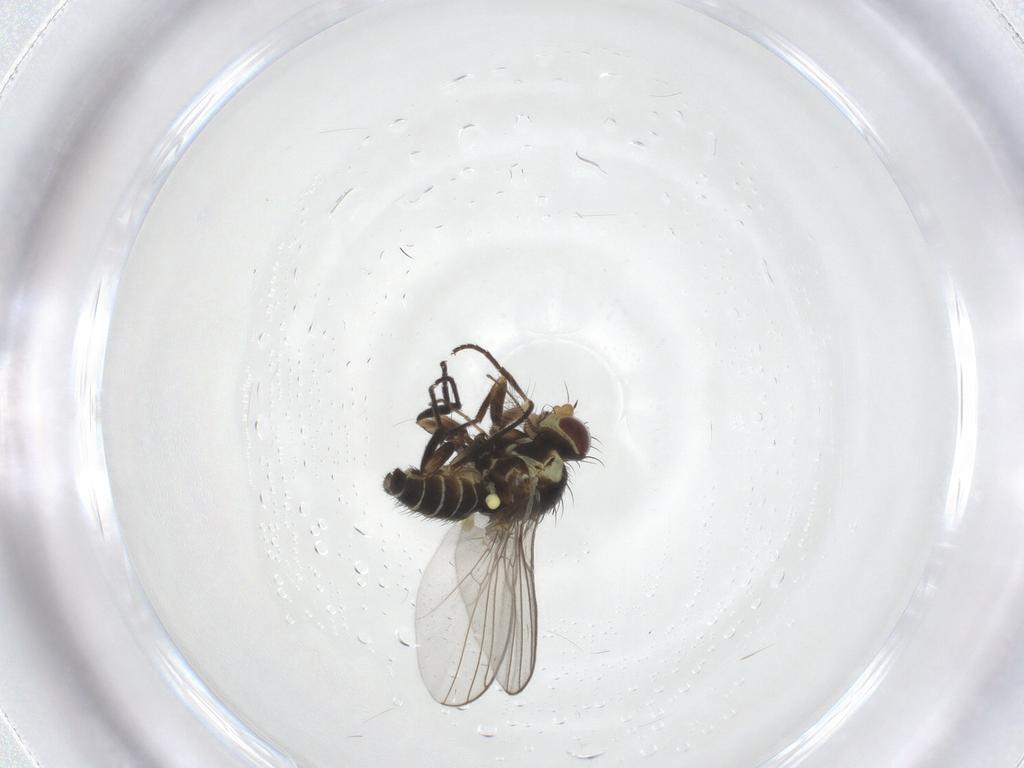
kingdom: Animalia
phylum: Arthropoda
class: Insecta
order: Diptera
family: Agromyzidae
